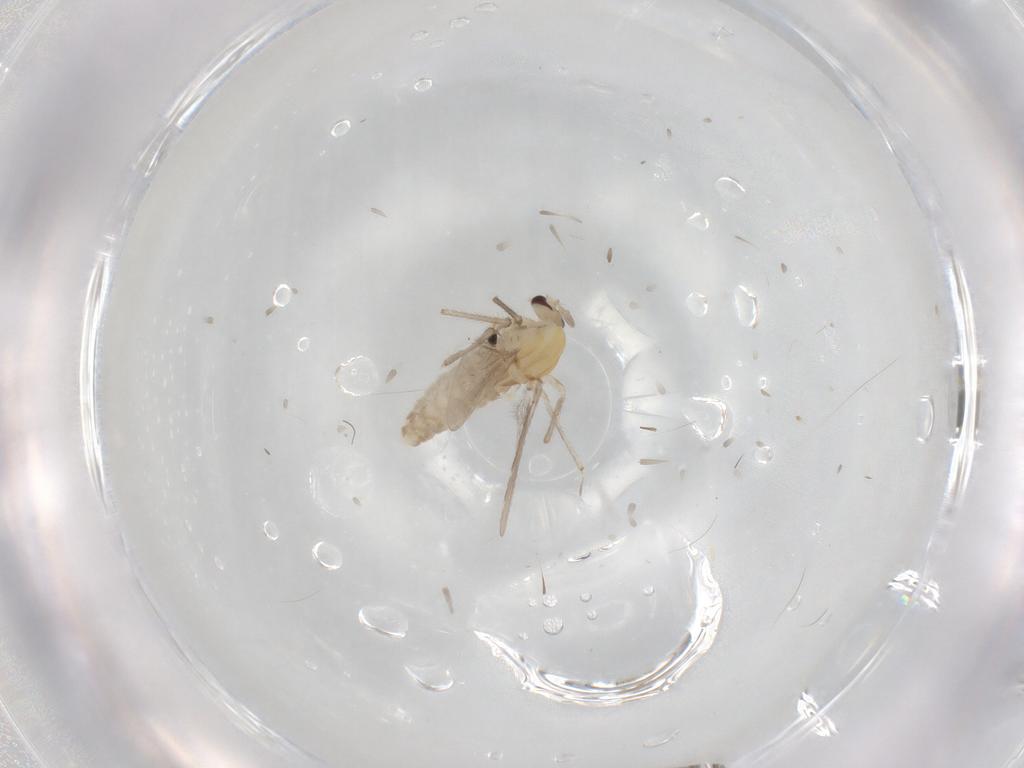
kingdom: Animalia
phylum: Arthropoda
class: Insecta
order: Diptera
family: Chironomidae
